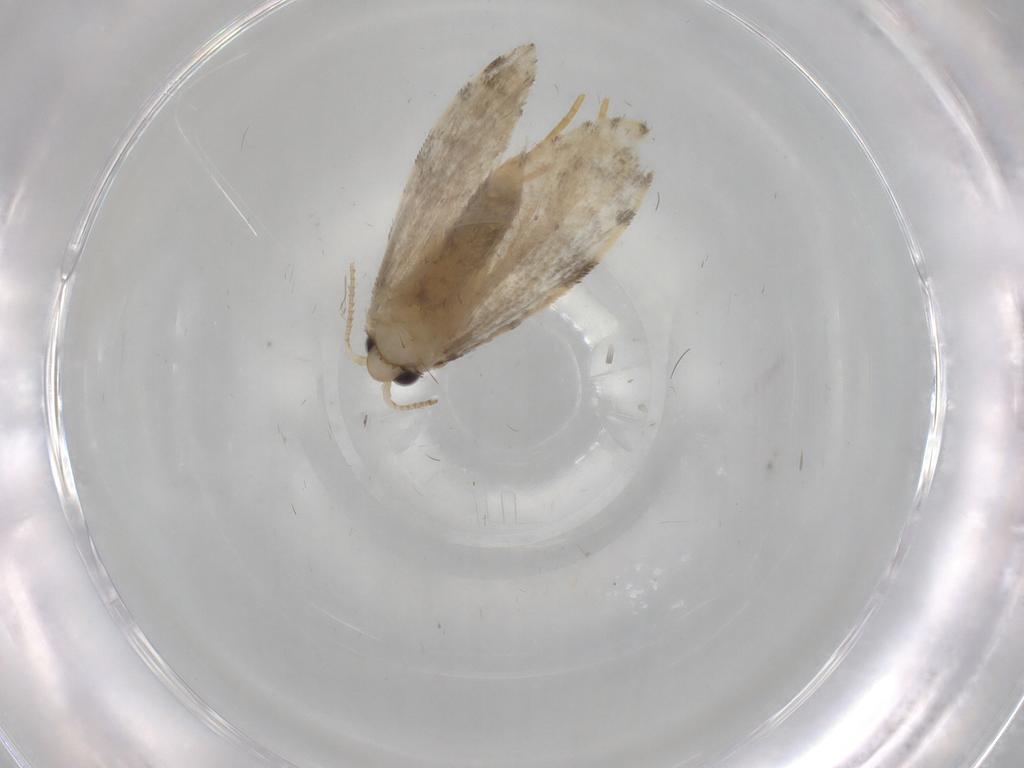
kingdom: Animalia
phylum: Arthropoda
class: Insecta
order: Lepidoptera
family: Psychidae
